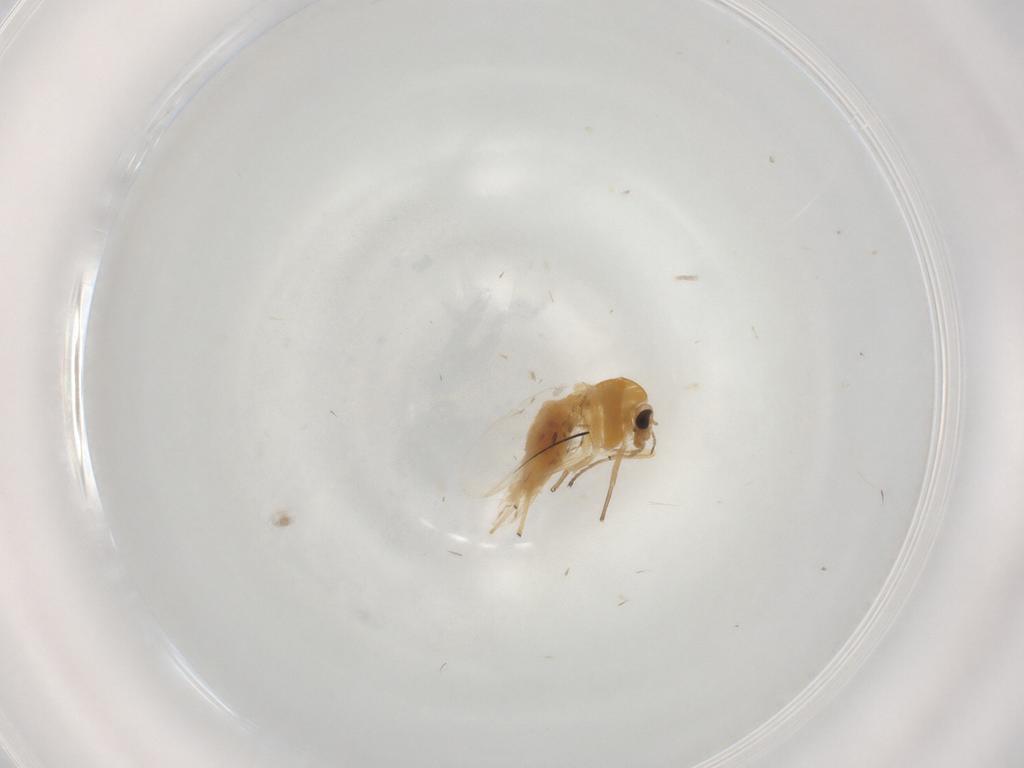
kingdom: Animalia
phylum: Arthropoda
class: Insecta
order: Diptera
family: Chironomidae
